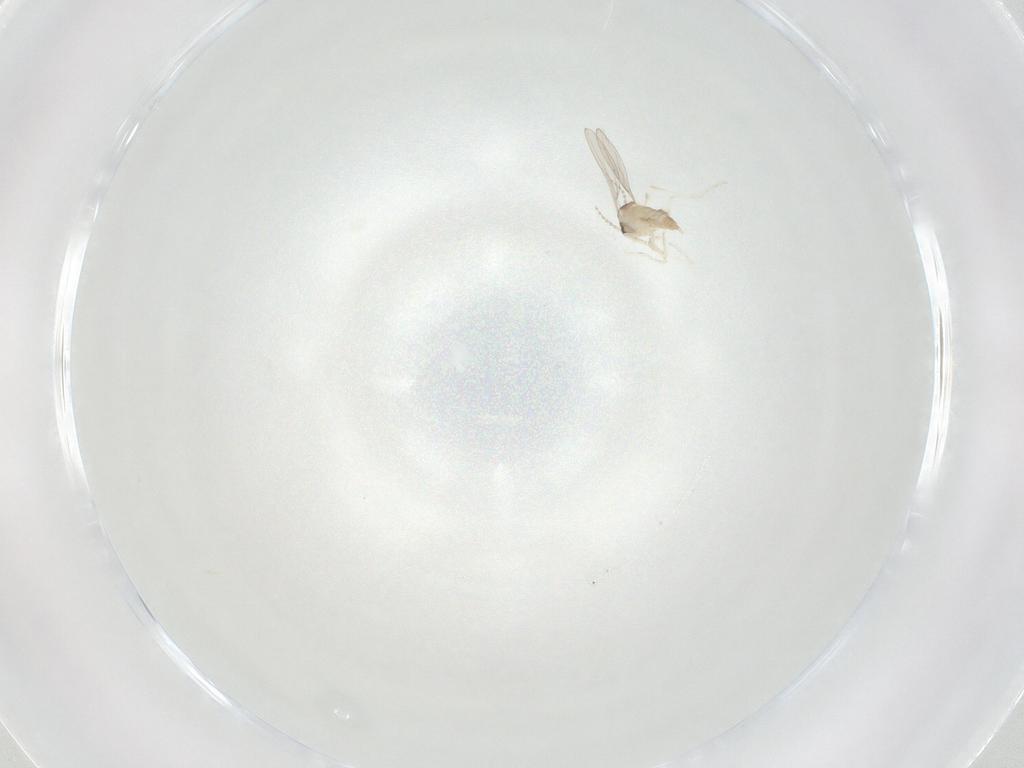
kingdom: Animalia
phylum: Arthropoda
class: Insecta
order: Diptera
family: Cecidomyiidae
